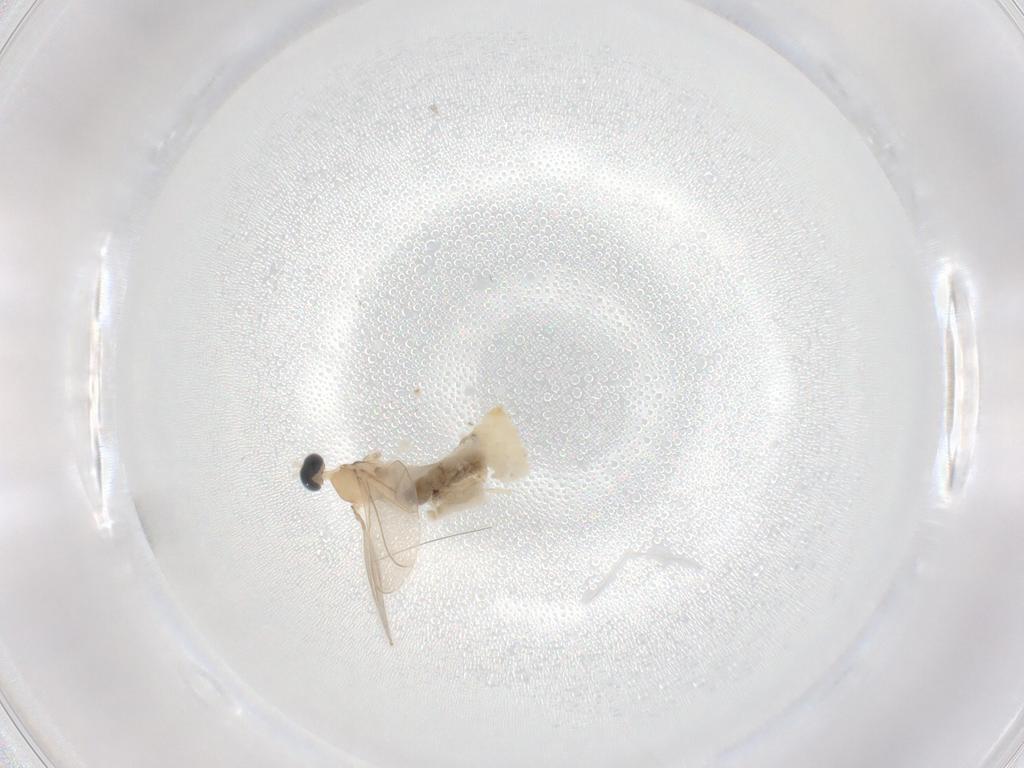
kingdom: Animalia
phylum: Arthropoda
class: Insecta
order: Diptera
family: Cecidomyiidae
